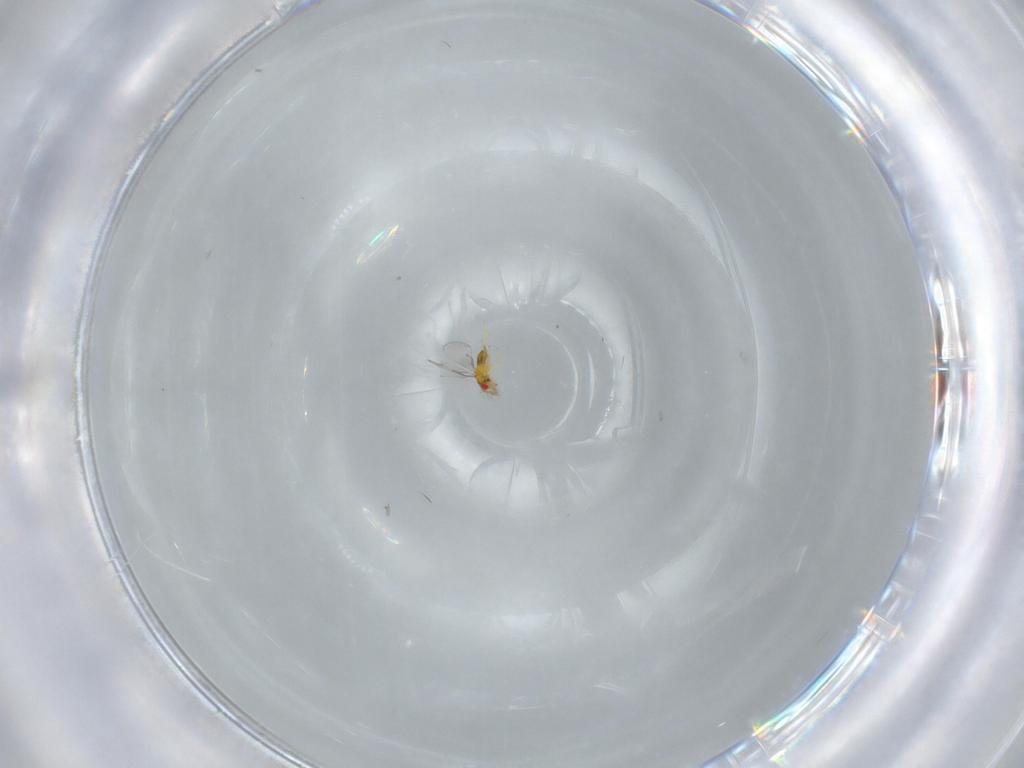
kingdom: Animalia
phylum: Arthropoda
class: Insecta
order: Hymenoptera
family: Trichogrammatidae
